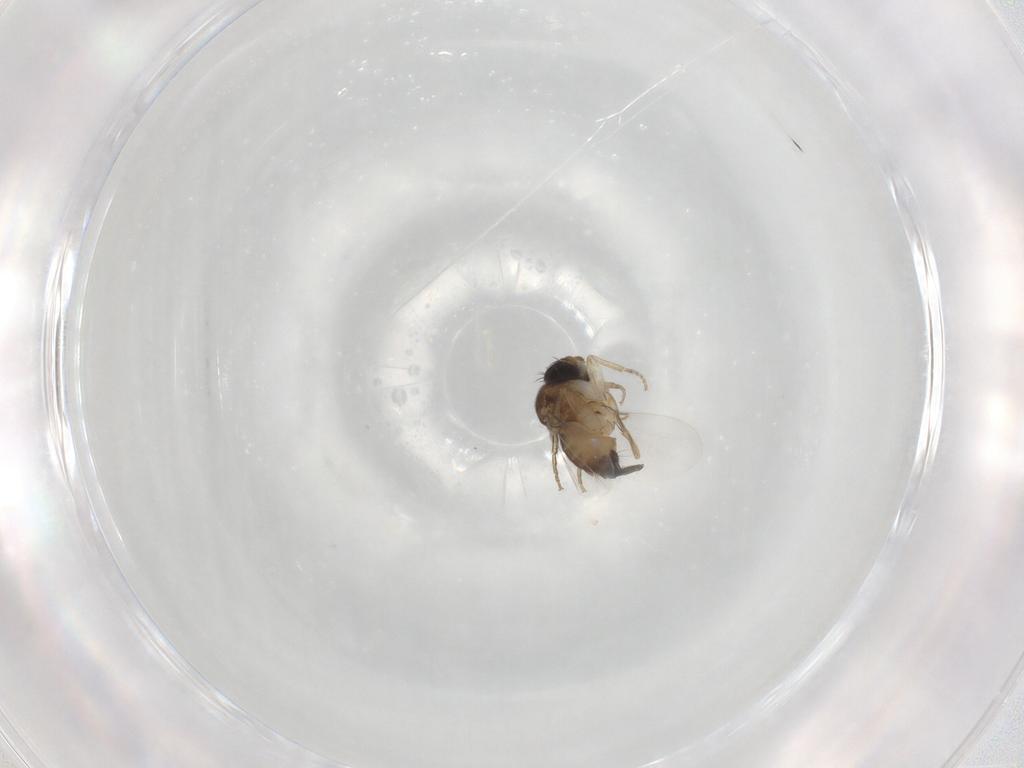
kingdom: Animalia
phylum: Arthropoda
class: Insecta
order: Diptera
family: Phoridae
